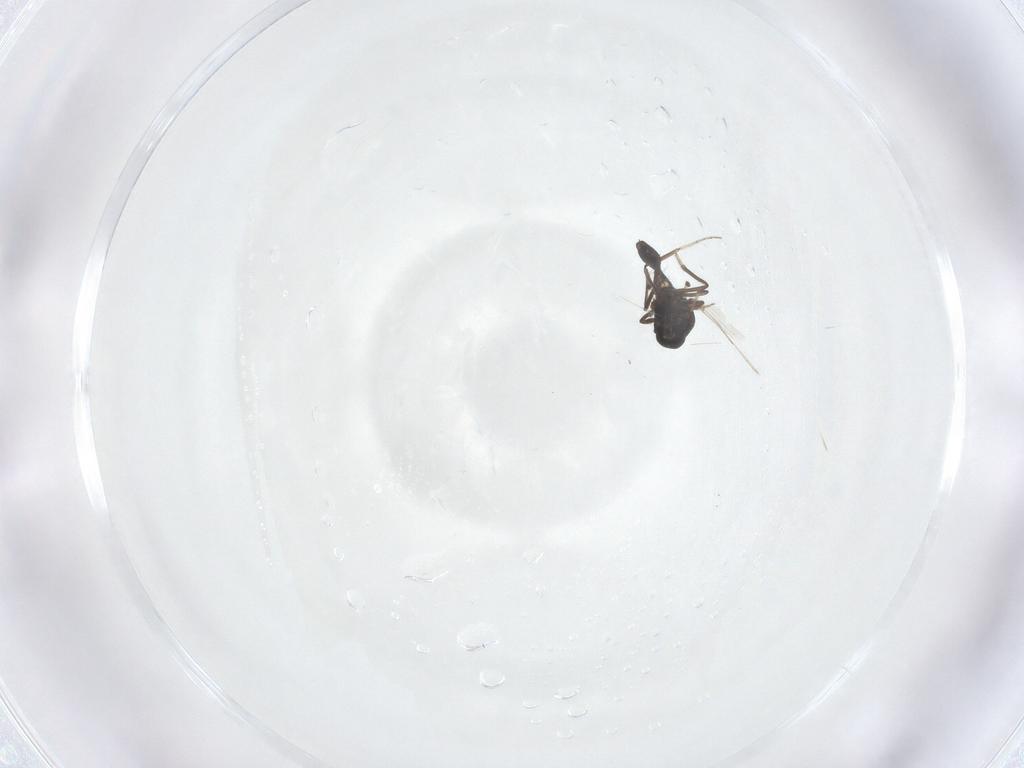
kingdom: Animalia
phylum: Arthropoda
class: Insecta
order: Diptera
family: Ceratopogonidae
